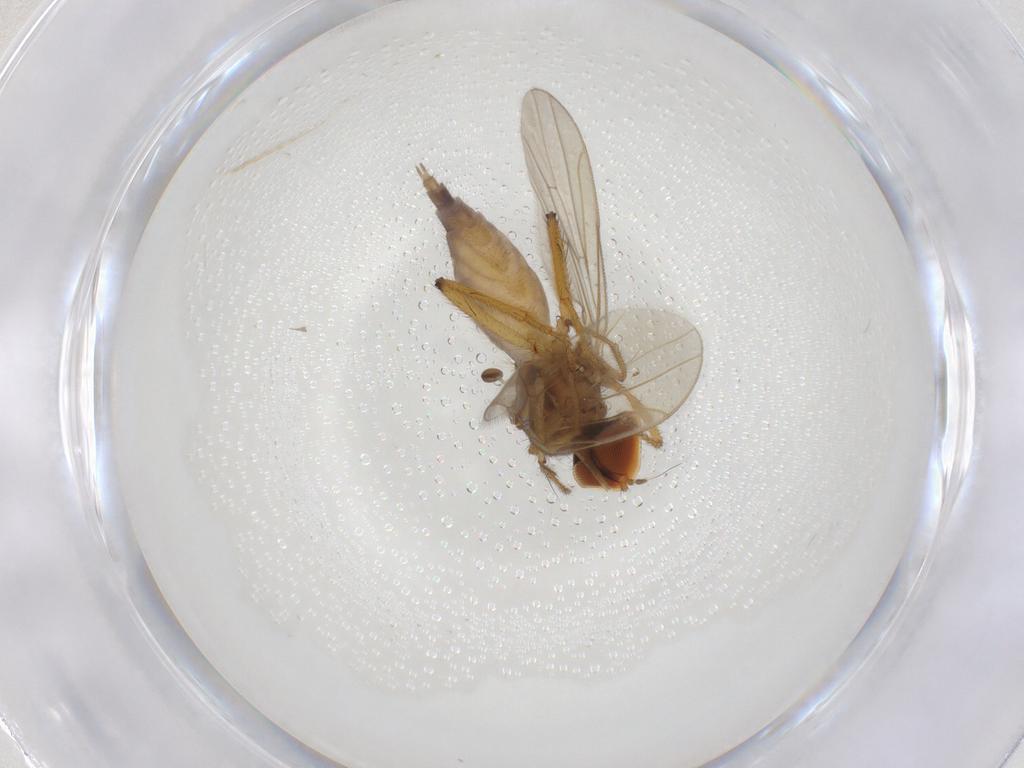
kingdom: Animalia
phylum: Arthropoda
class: Insecta
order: Diptera
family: Hybotidae
